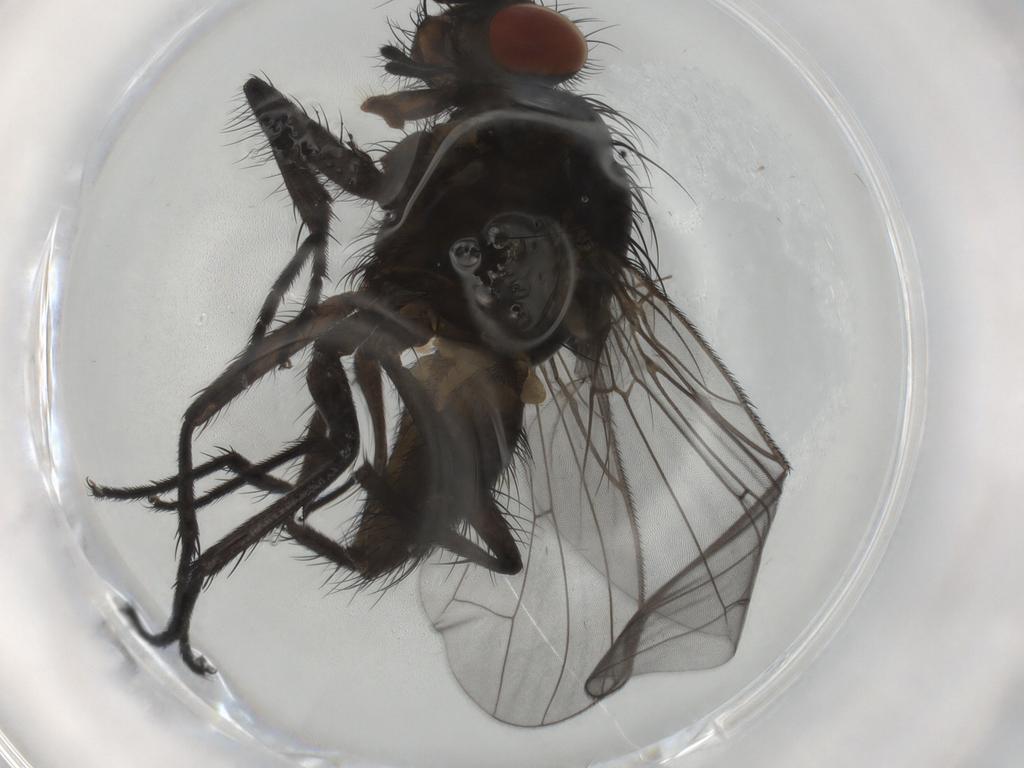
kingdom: Animalia
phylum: Arthropoda
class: Insecta
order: Diptera
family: Anthomyiidae
